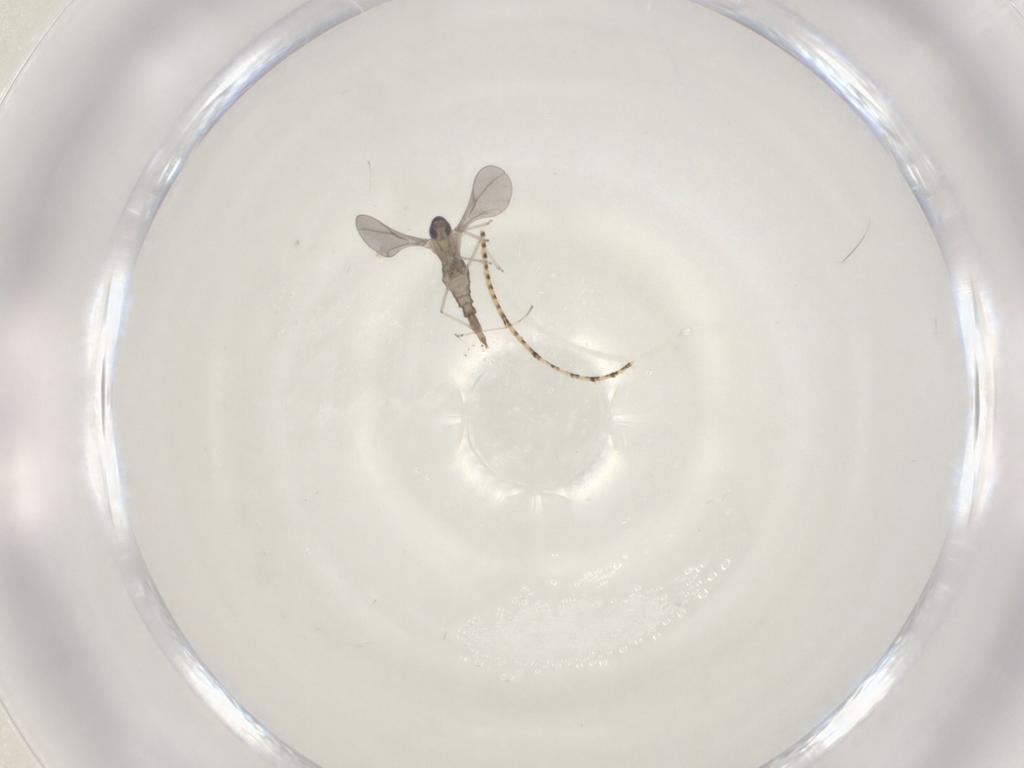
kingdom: Animalia
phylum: Arthropoda
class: Insecta
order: Diptera
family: Cecidomyiidae
